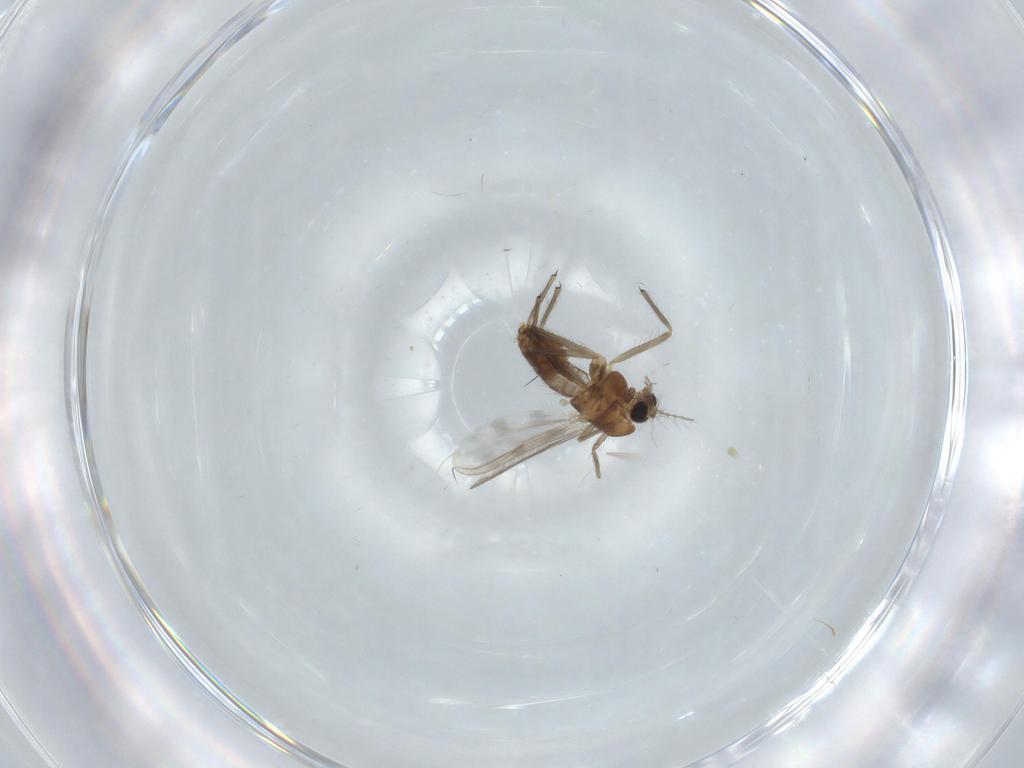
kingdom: Animalia
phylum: Arthropoda
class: Insecta
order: Diptera
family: Chironomidae
